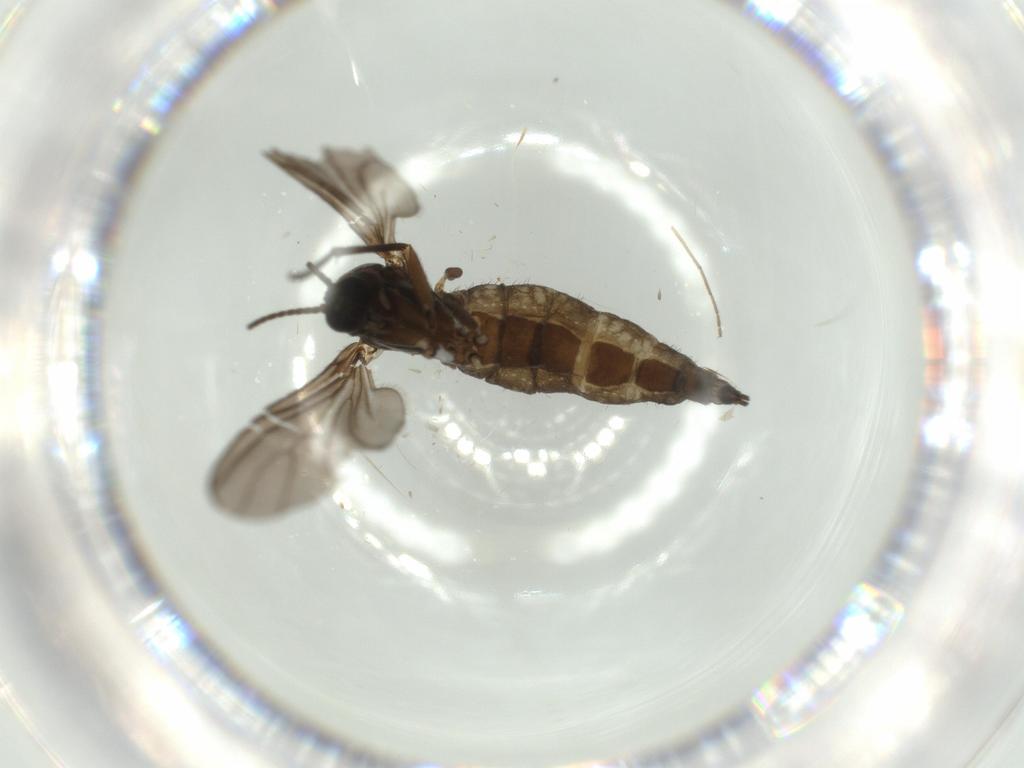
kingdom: Animalia
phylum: Arthropoda
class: Insecta
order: Diptera
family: Sciaridae
